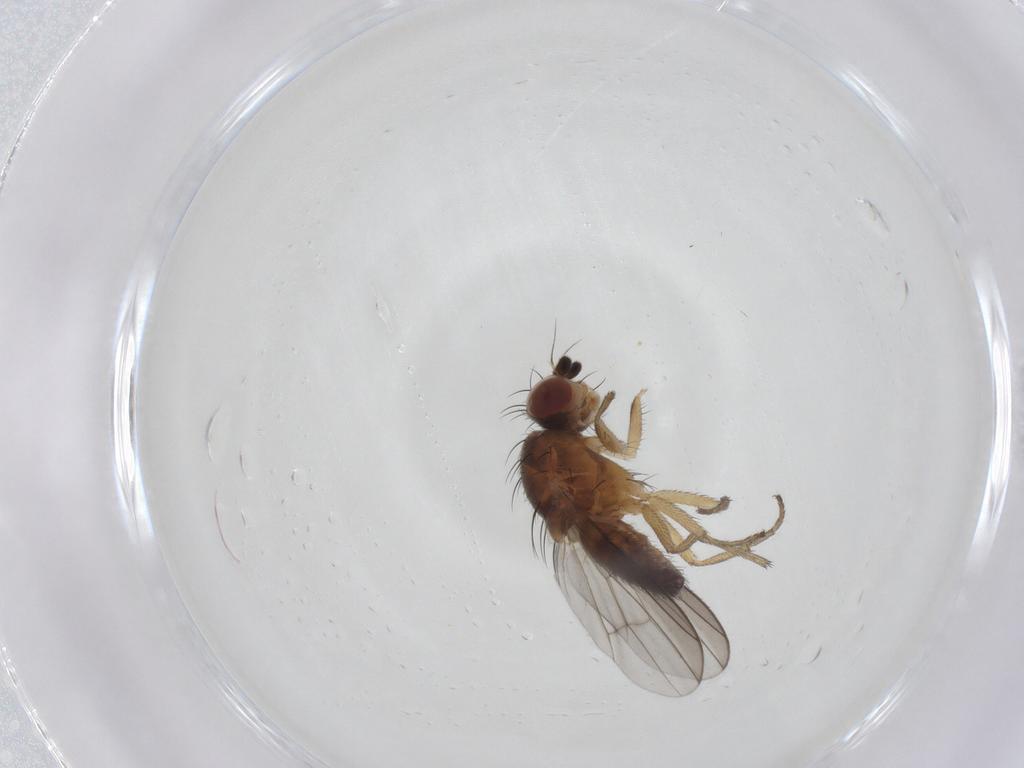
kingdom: Animalia
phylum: Arthropoda
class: Insecta
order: Diptera
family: Heleomyzidae
